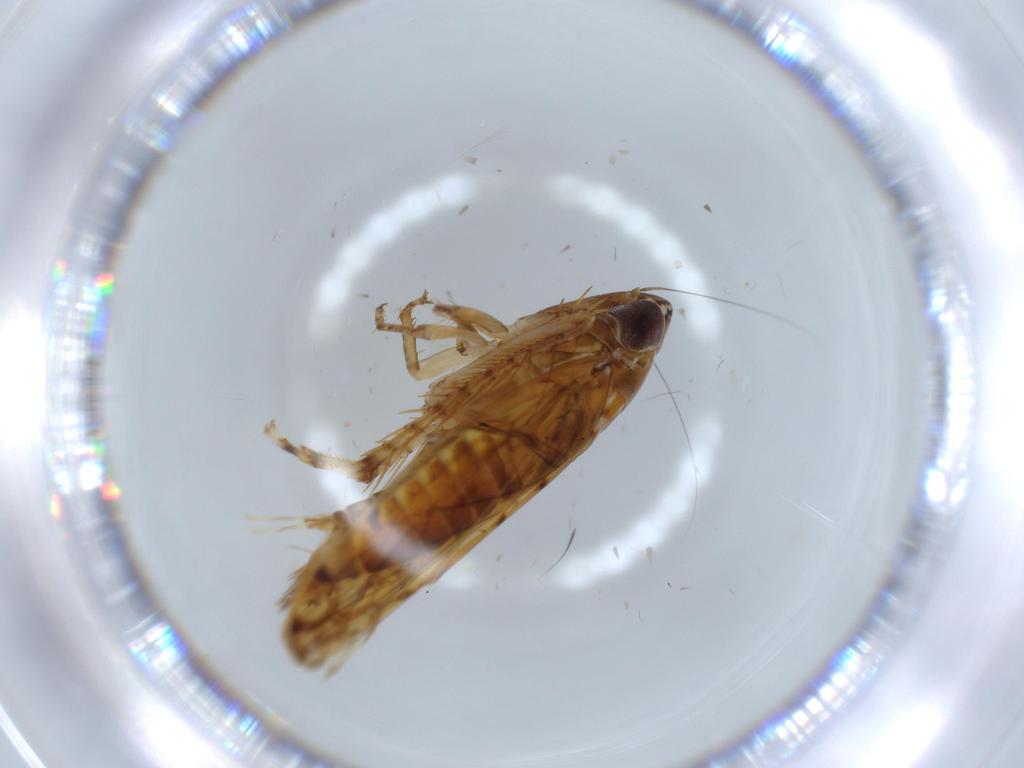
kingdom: Animalia
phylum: Arthropoda
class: Insecta
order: Hemiptera
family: Cicadellidae
